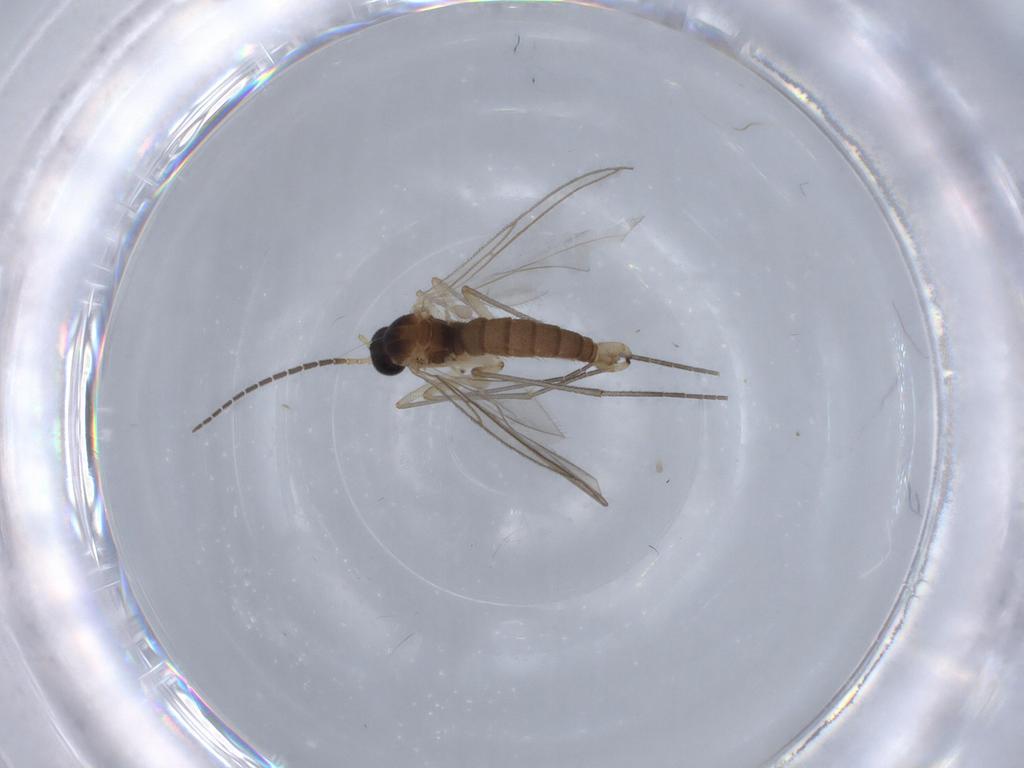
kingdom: Animalia
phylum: Arthropoda
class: Insecta
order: Diptera
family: Sciaridae
